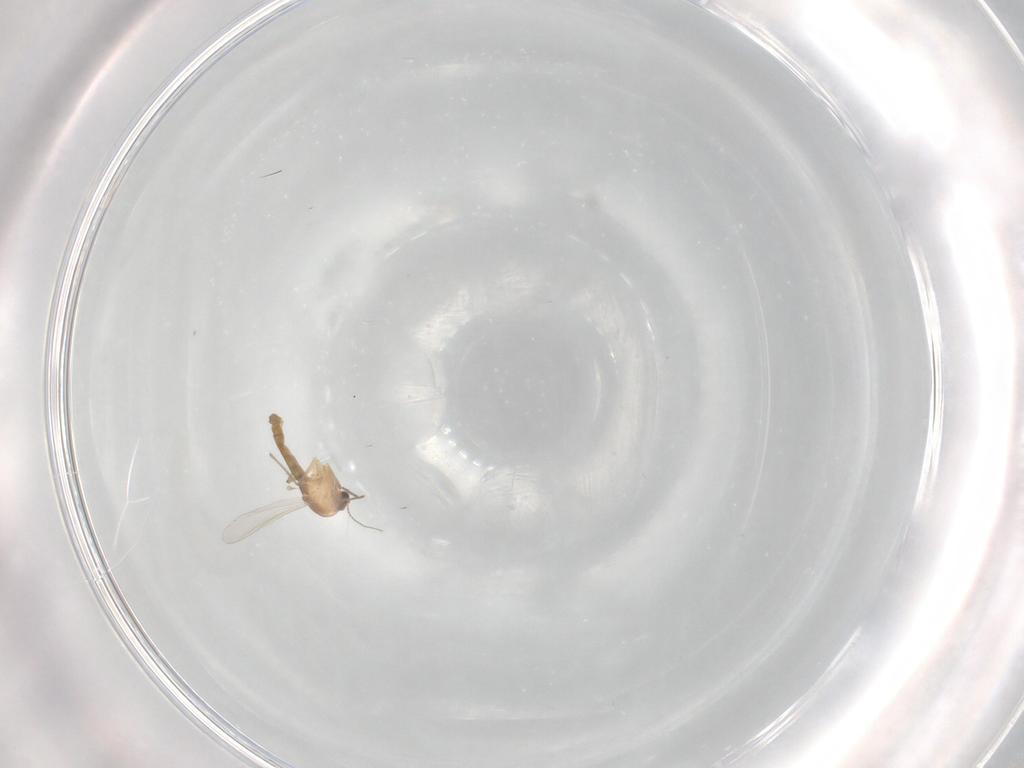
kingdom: Animalia
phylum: Arthropoda
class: Insecta
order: Diptera
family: Chironomidae
